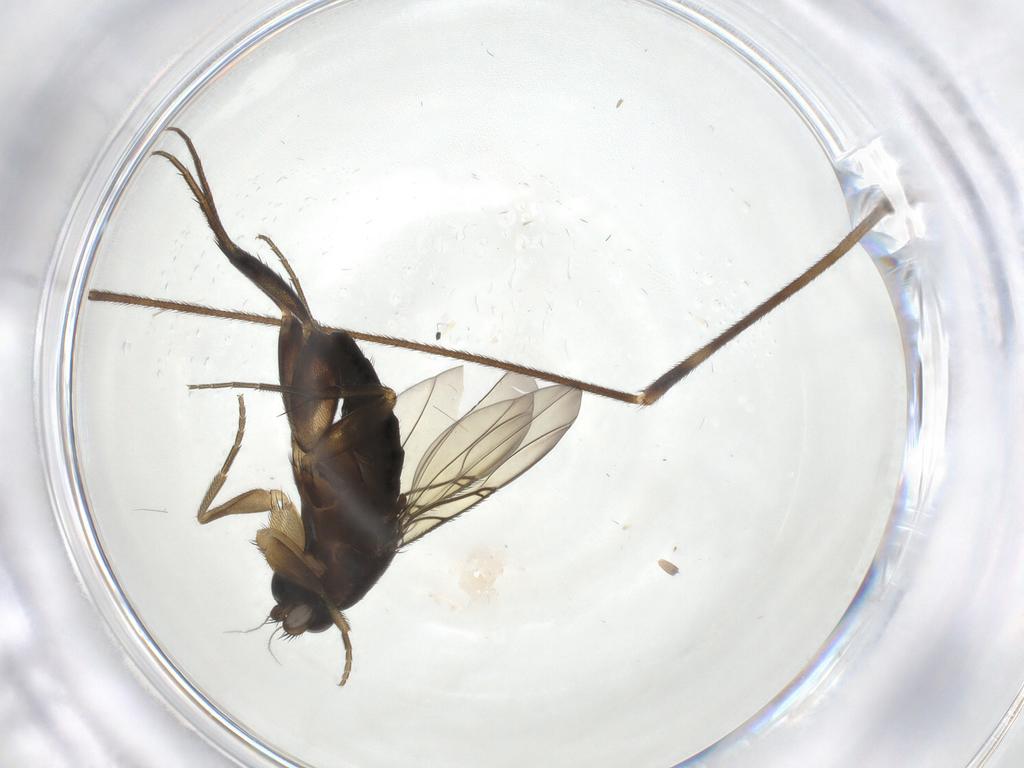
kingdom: Animalia
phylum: Arthropoda
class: Insecta
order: Diptera
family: Phoridae
